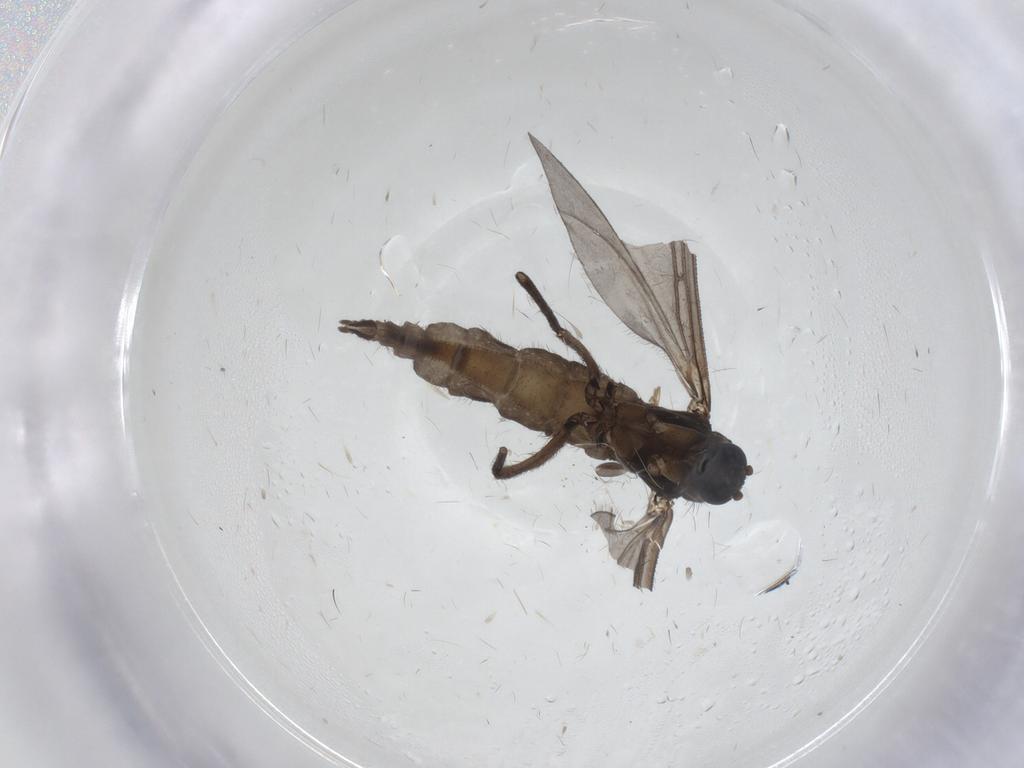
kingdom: Animalia
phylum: Arthropoda
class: Insecta
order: Diptera
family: Sciaridae
